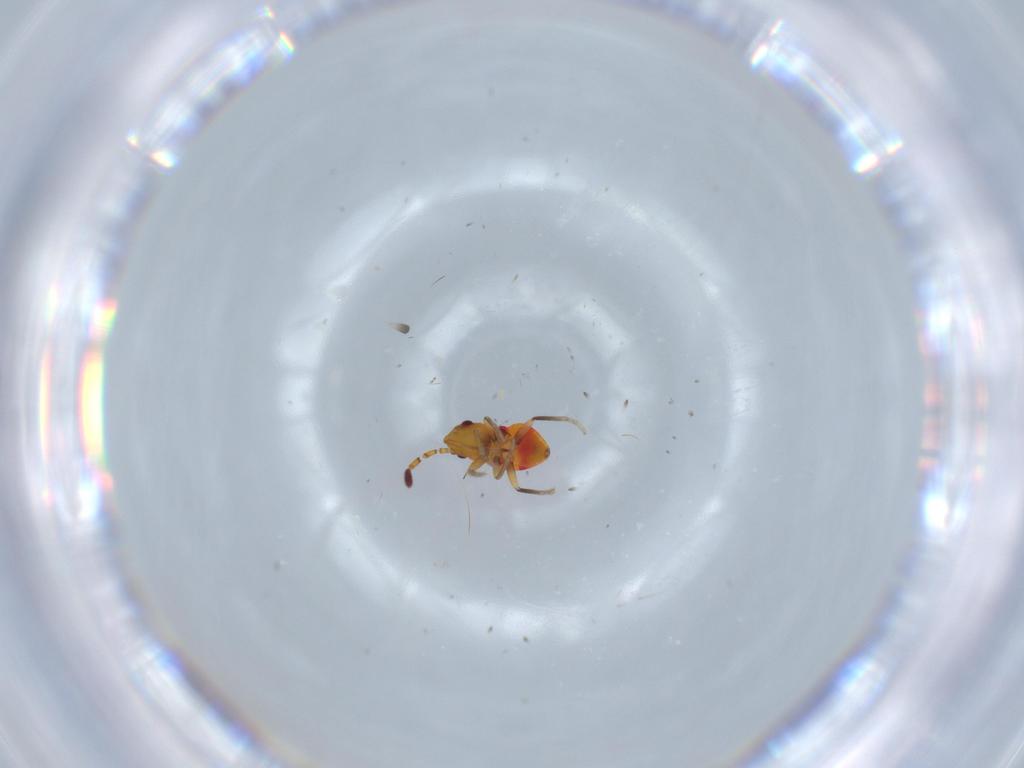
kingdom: Animalia
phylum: Arthropoda
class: Insecta
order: Hemiptera
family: Rhyparochromidae
